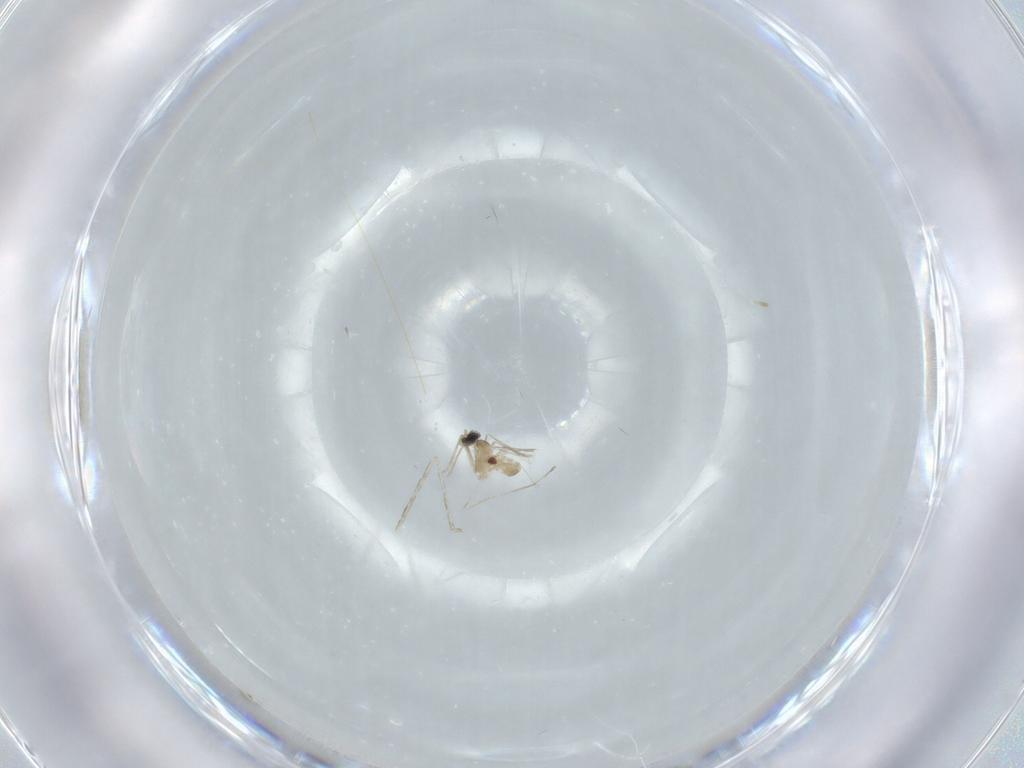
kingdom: Animalia
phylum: Arthropoda
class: Insecta
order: Diptera
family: Cecidomyiidae
